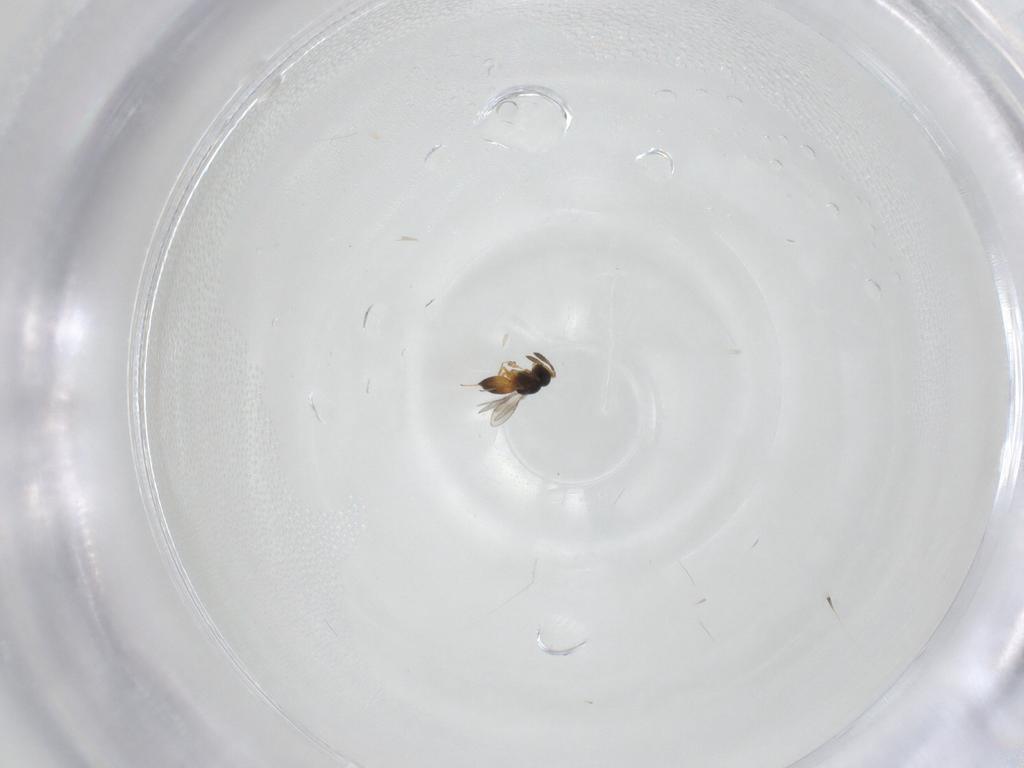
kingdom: Animalia
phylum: Arthropoda
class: Insecta
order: Hymenoptera
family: Scelionidae
